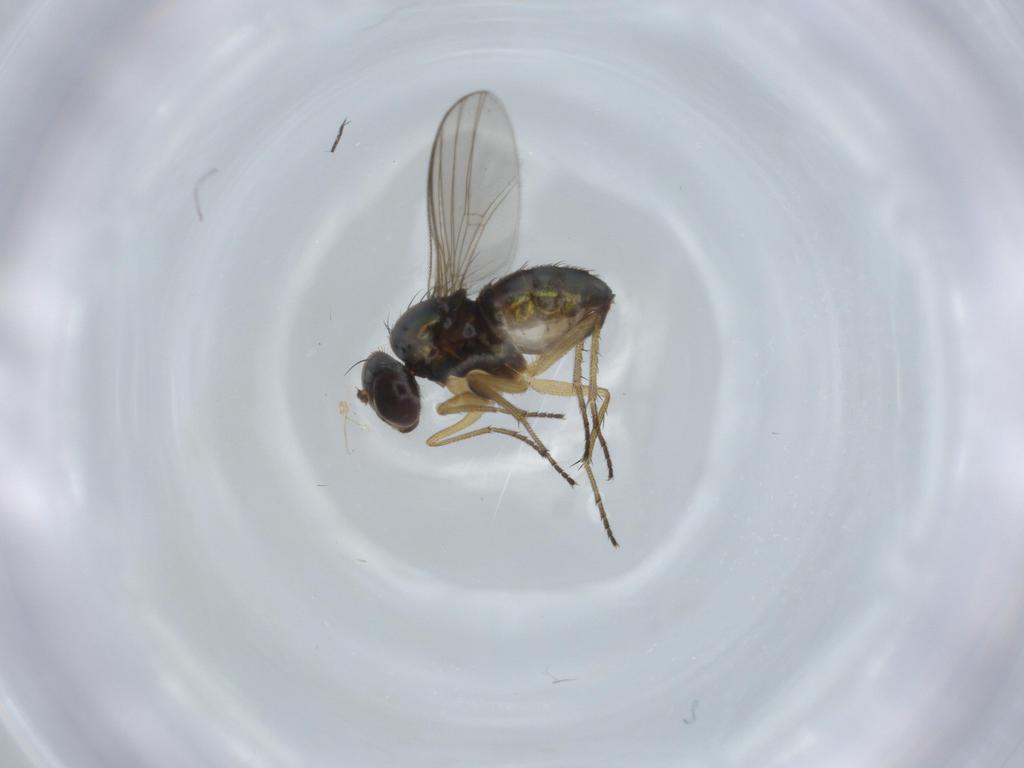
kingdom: Animalia
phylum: Arthropoda
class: Insecta
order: Diptera
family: Dolichopodidae
